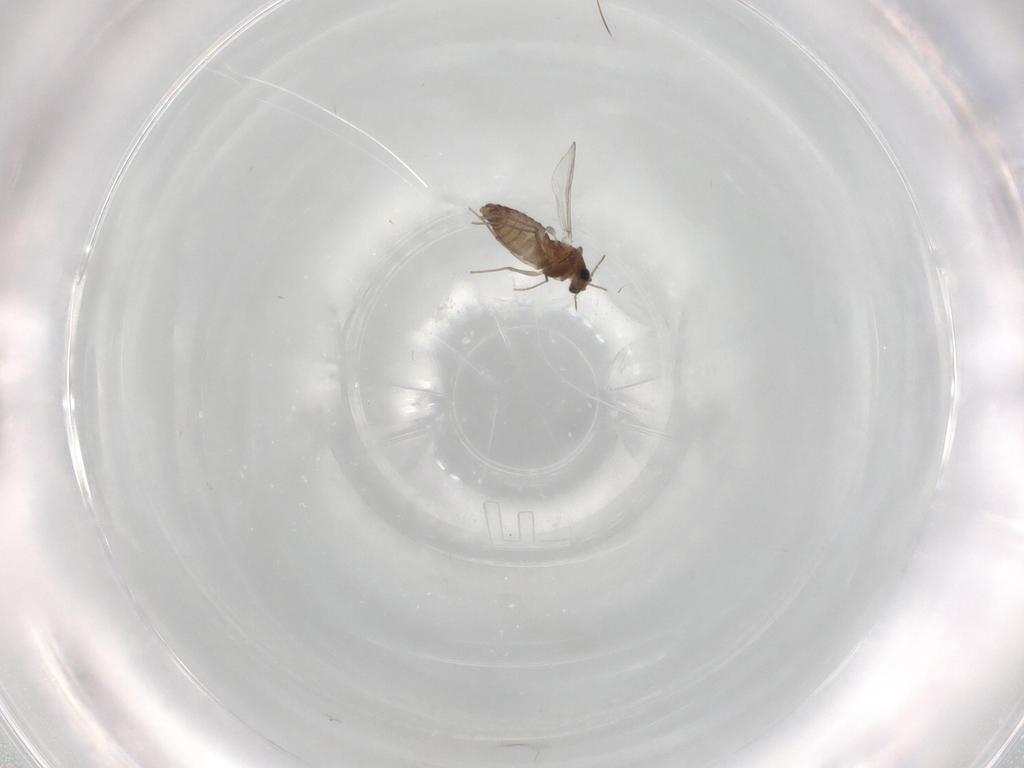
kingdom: Animalia
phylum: Arthropoda
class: Insecta
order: Diptera
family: Chironomidae
